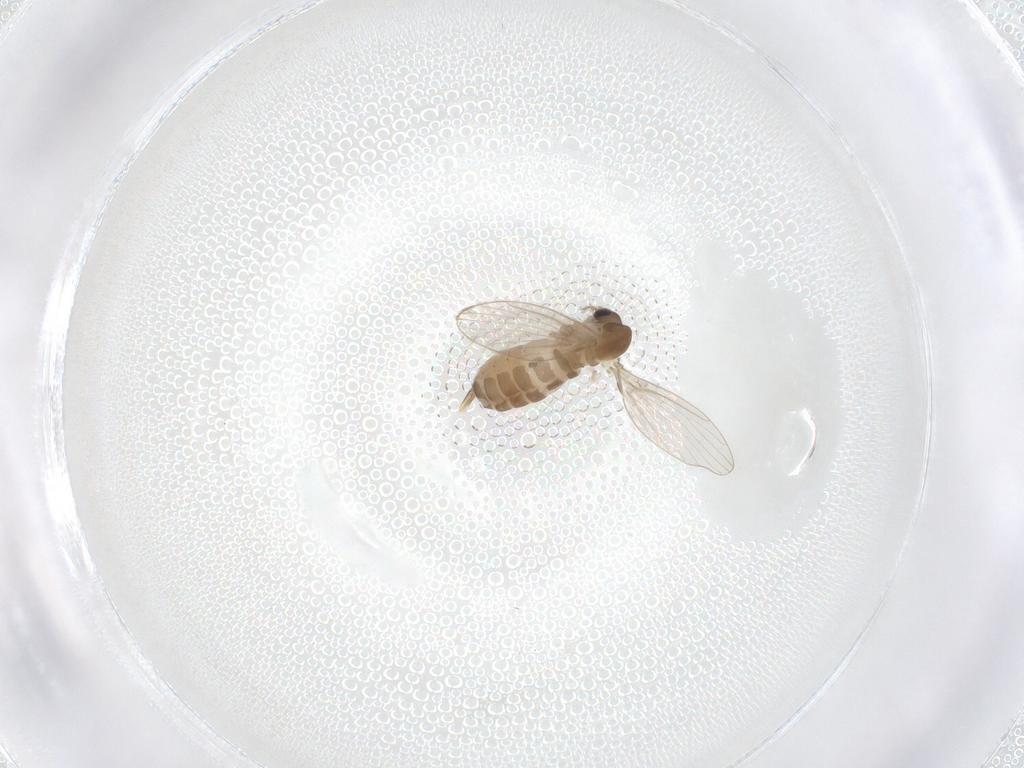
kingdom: Animalia
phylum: Arthropoda
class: Insecta
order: Diptera
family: Psychodidae
